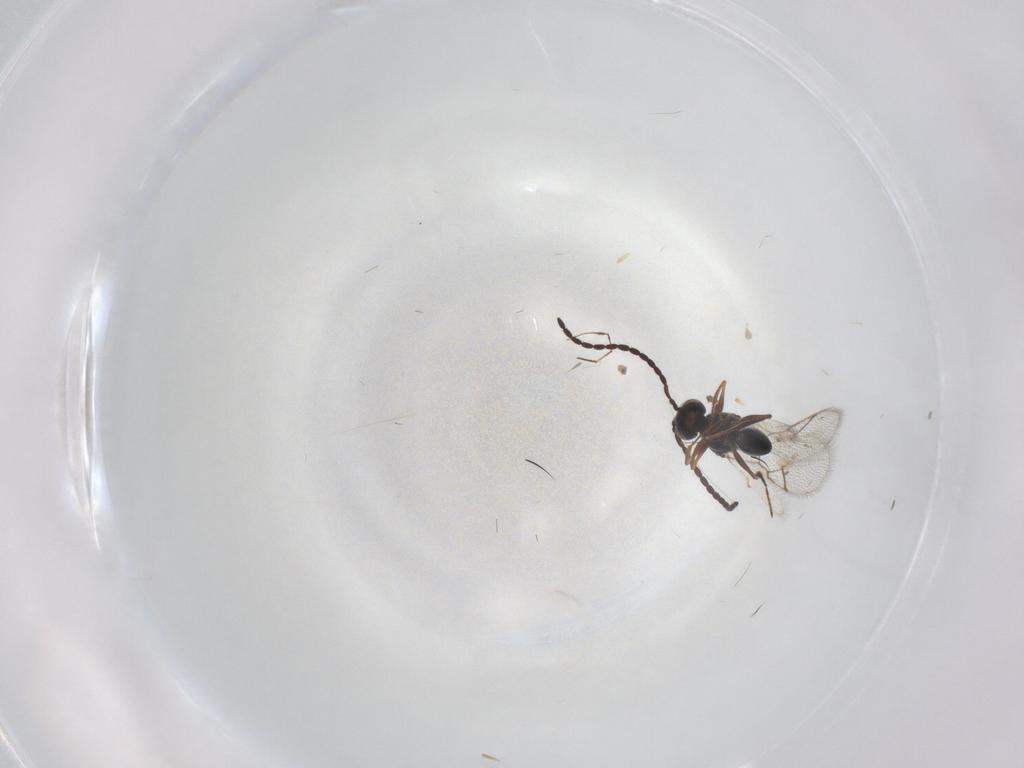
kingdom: Animalia
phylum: Arthropoda
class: Insecta
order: Hymenoptera
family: Figitidae
